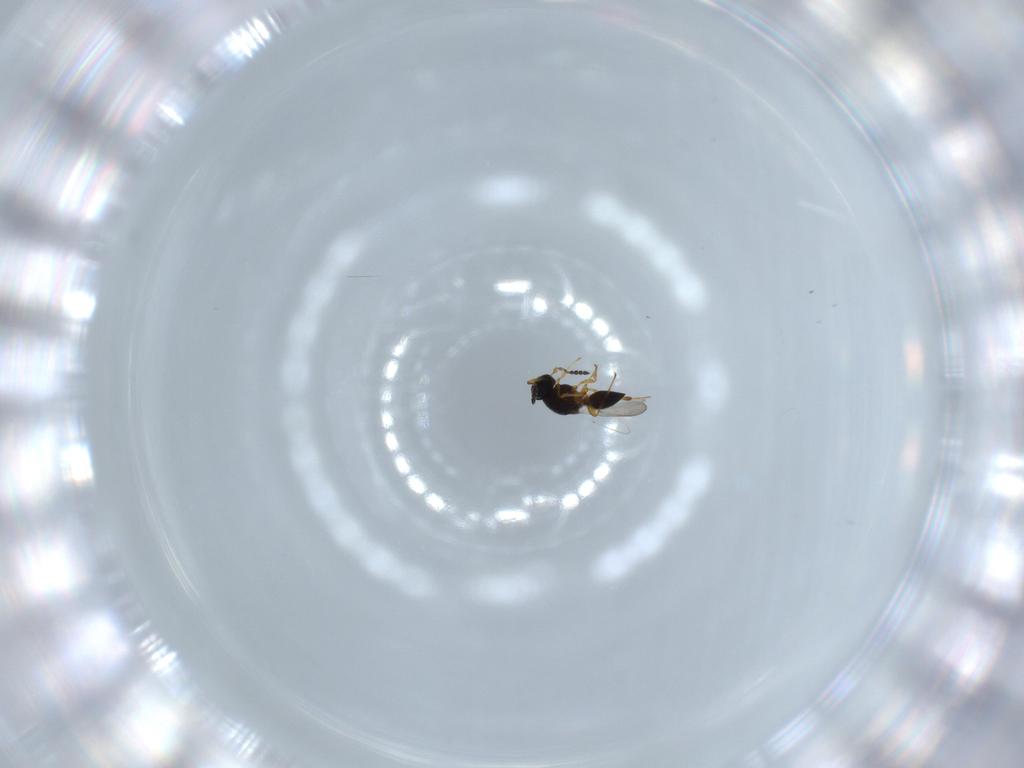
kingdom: Animalia
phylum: Arthropoda
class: Insecta
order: Hymenoptera
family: Platygastridae
